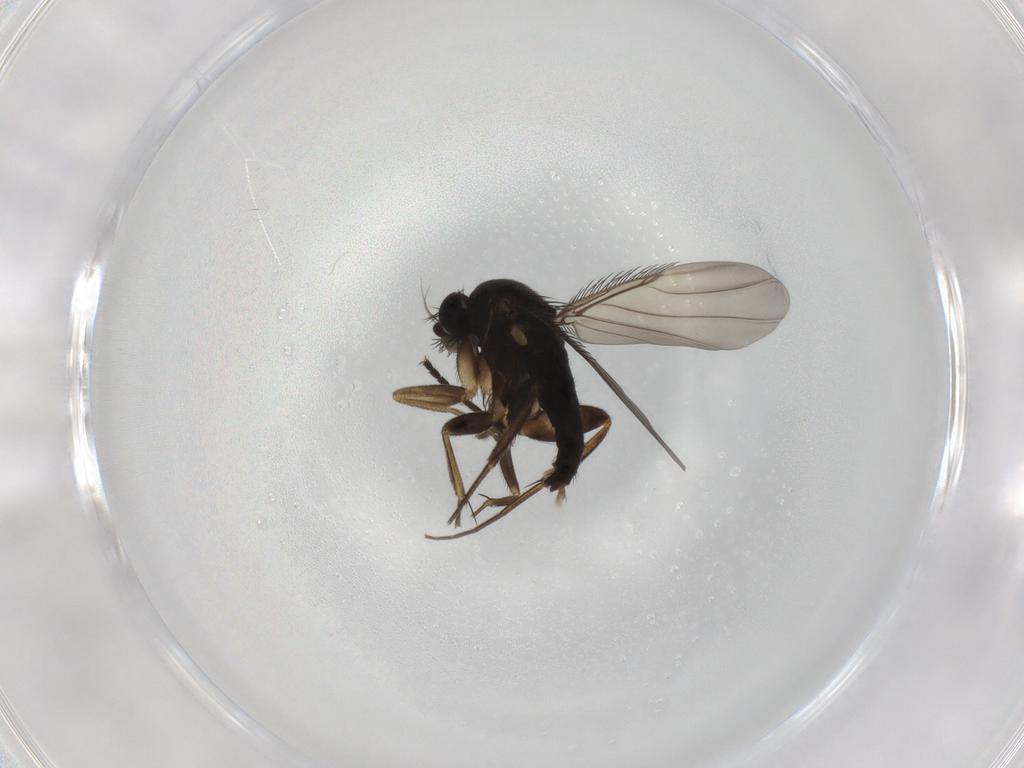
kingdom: Animalia
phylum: Arthropoda
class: Insecta
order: Diptera
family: Phoridae
